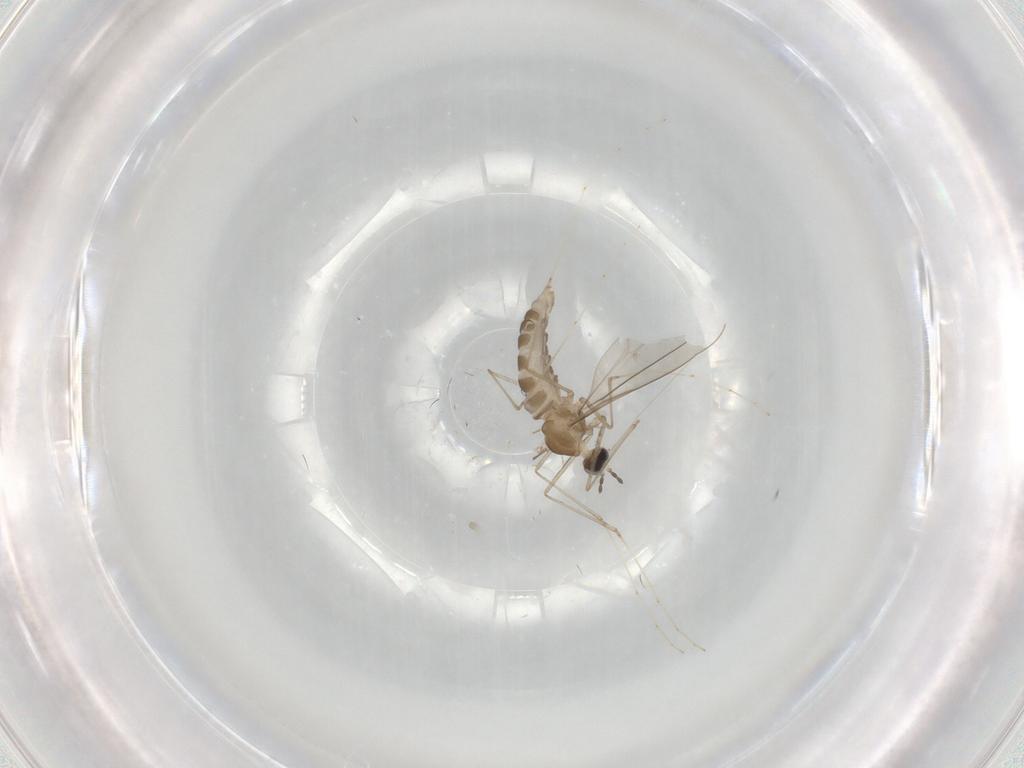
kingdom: Animalia
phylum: Arthropoda
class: Insecta
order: Diptera
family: Cecidomyiidae
